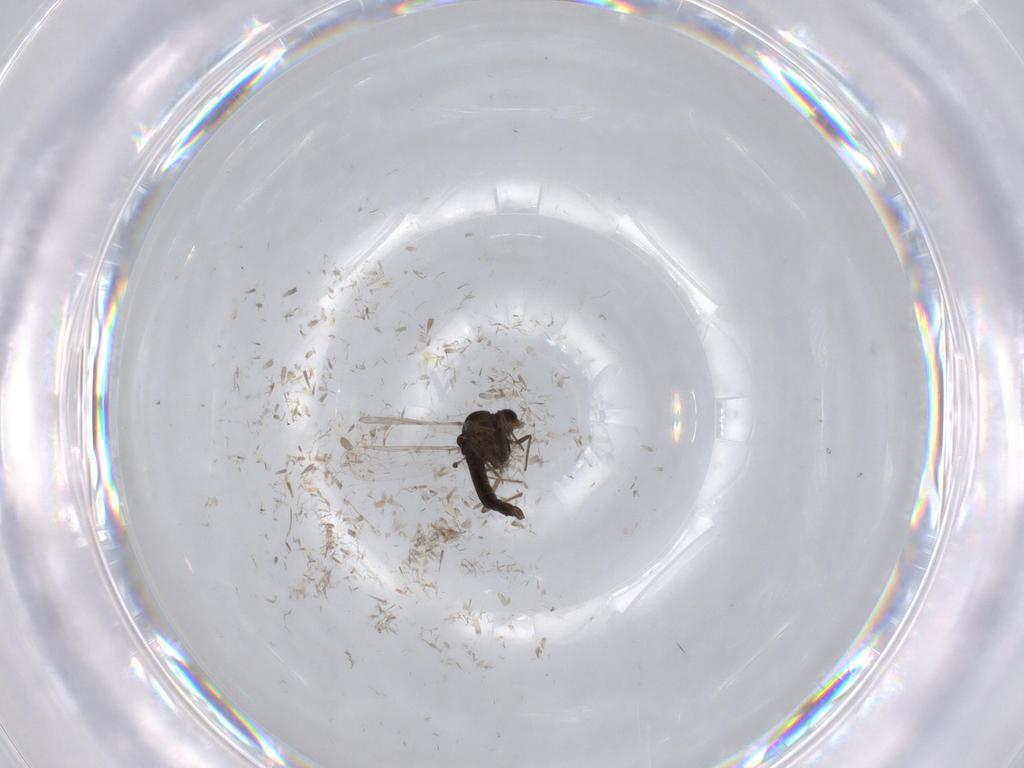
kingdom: Animalia
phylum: Arthropoda
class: Insecta
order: Diptera
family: Chironomidae
